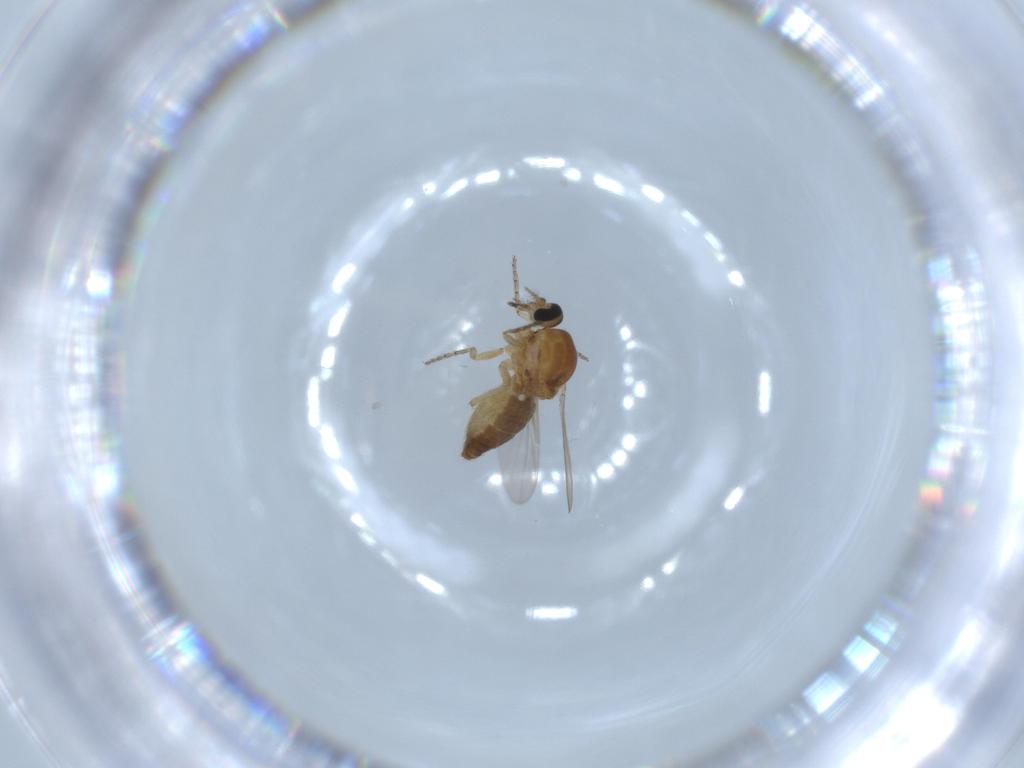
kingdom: Animalia
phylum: Arthropoda
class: Insecta
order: Diptera
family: Ceratopogonidae
